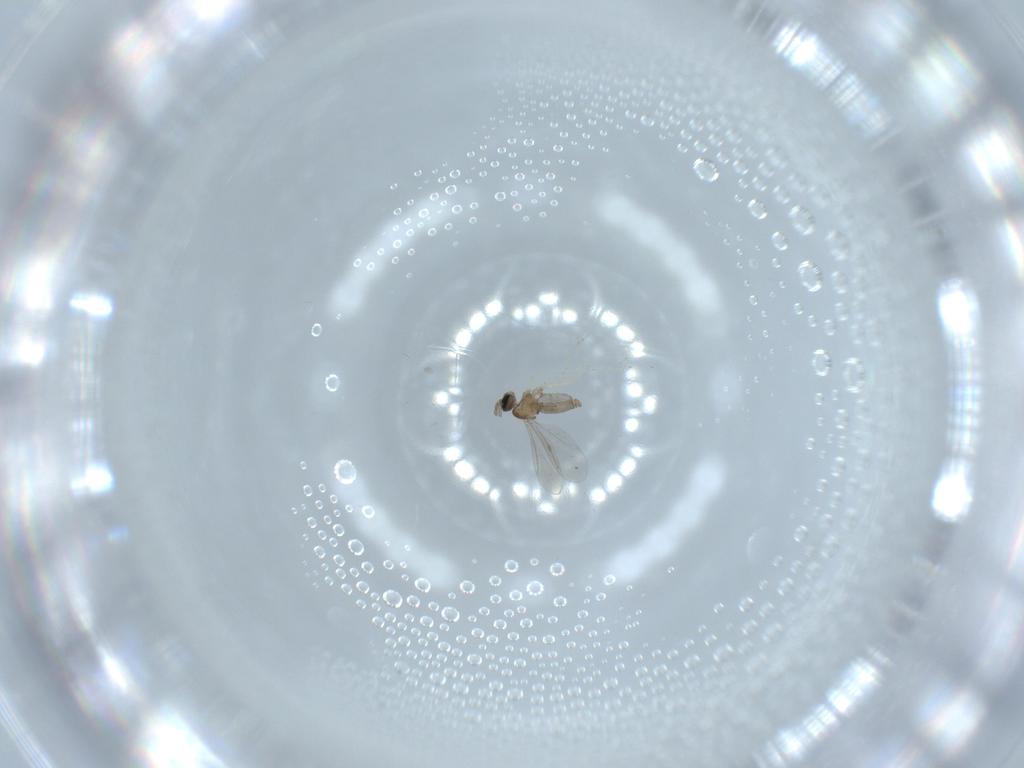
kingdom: Animalia
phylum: Arthropoda
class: Insecta
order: Diptera
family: Cecidomyiidae
